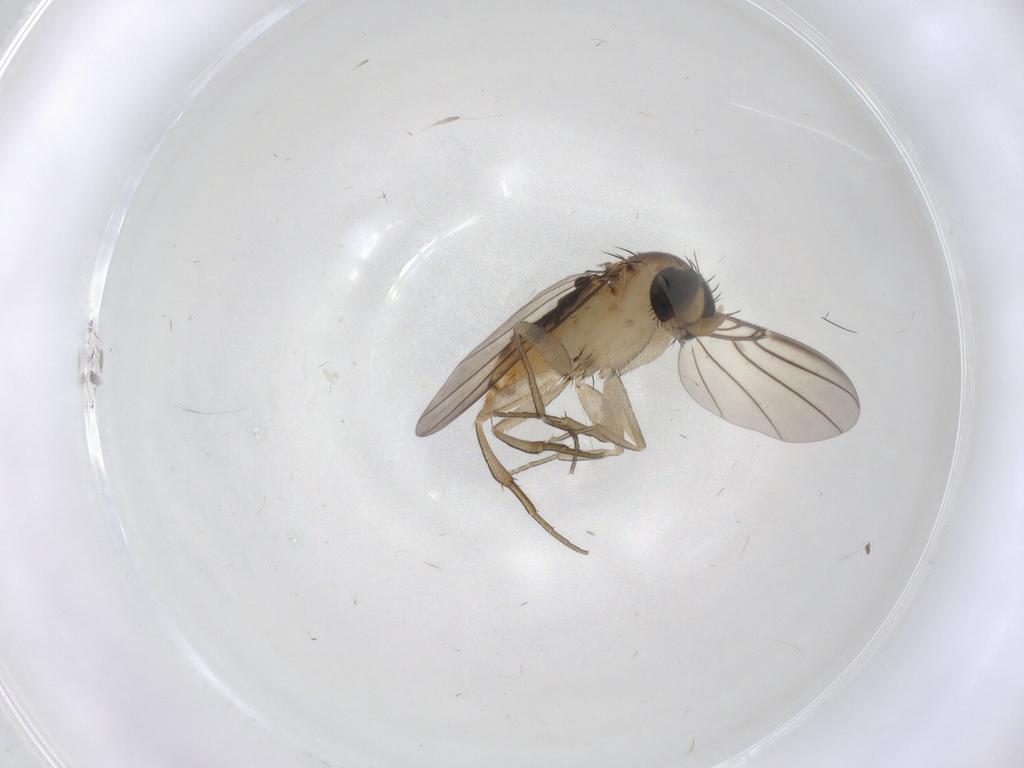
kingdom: Animalia
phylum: Arthropoda
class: Insecta
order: Diptera
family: Phoridae
